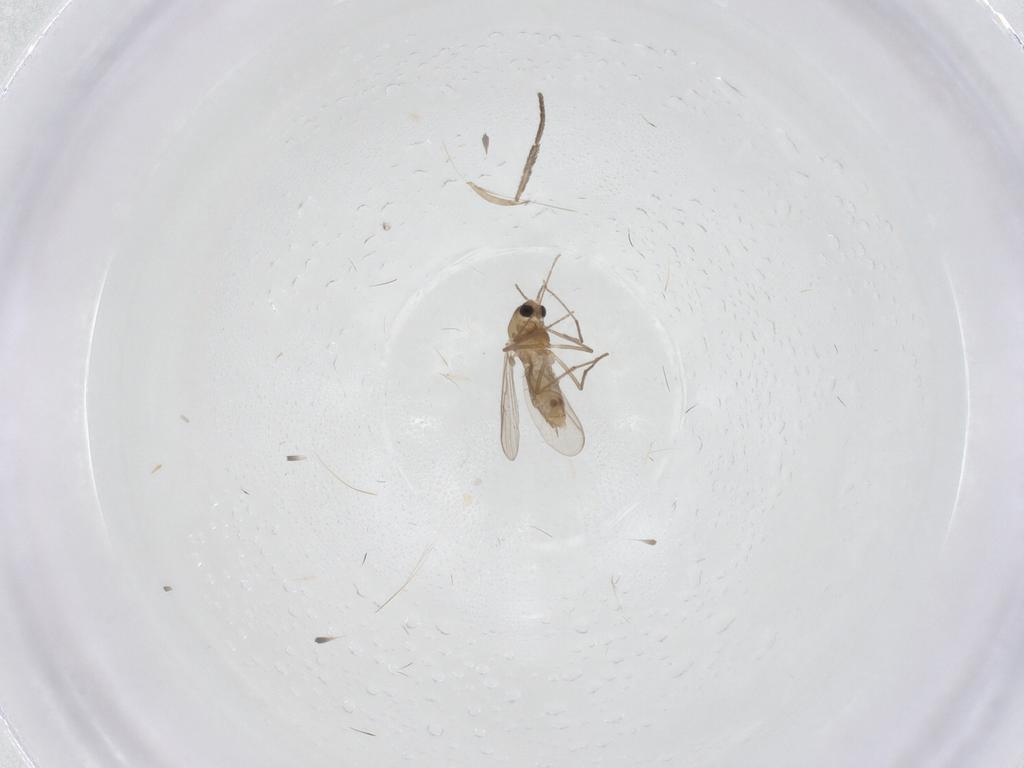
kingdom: Animalia
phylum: Arthropoda
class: Insecta
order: Diptera
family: Chironomidae
